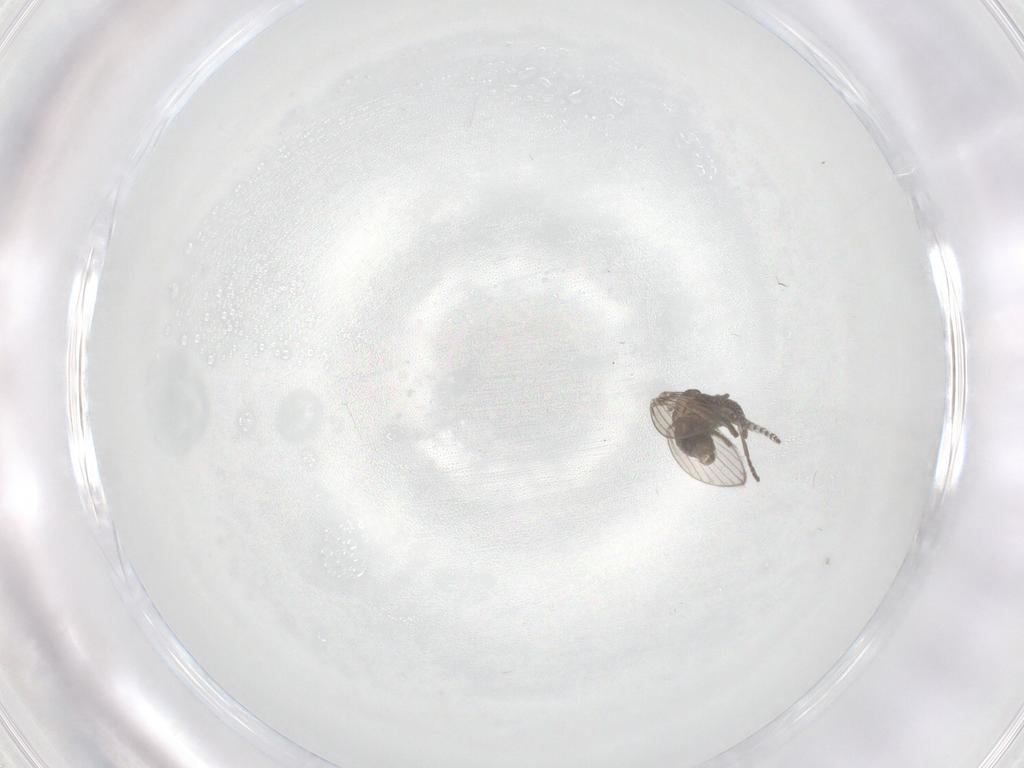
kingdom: Animalia
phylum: Arthropoda
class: Insecta
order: Diptera
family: Psychodidae
